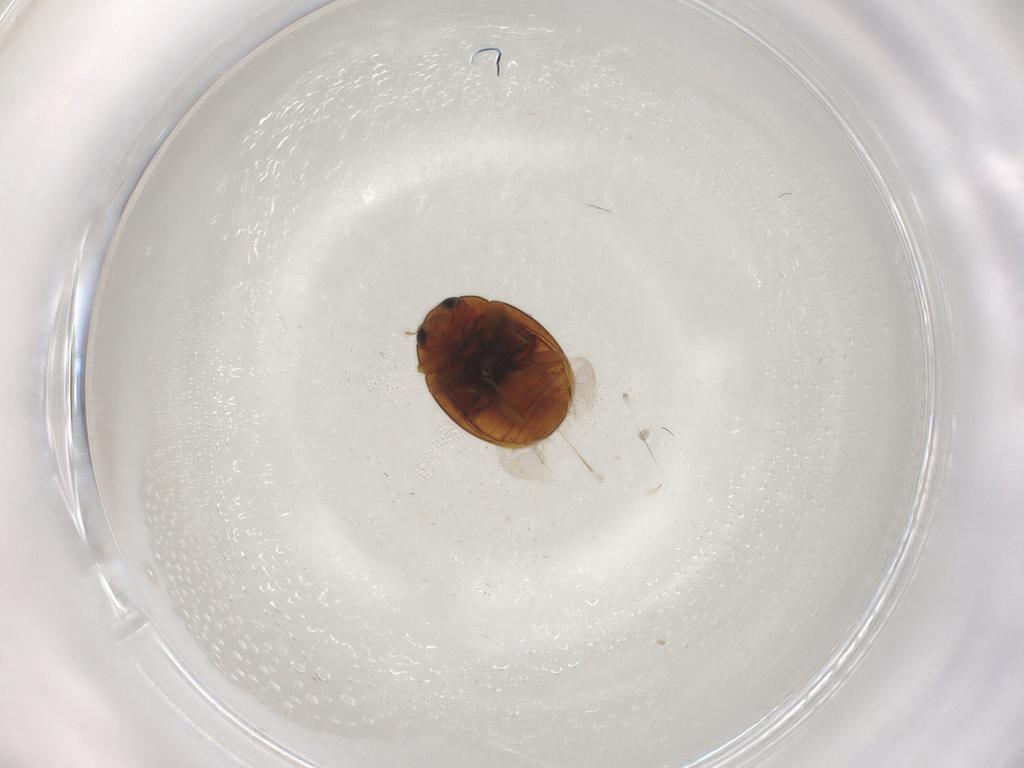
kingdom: Animalia
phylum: Arthropoda
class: Insecta
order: Coleoptera
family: Coccinellidae
